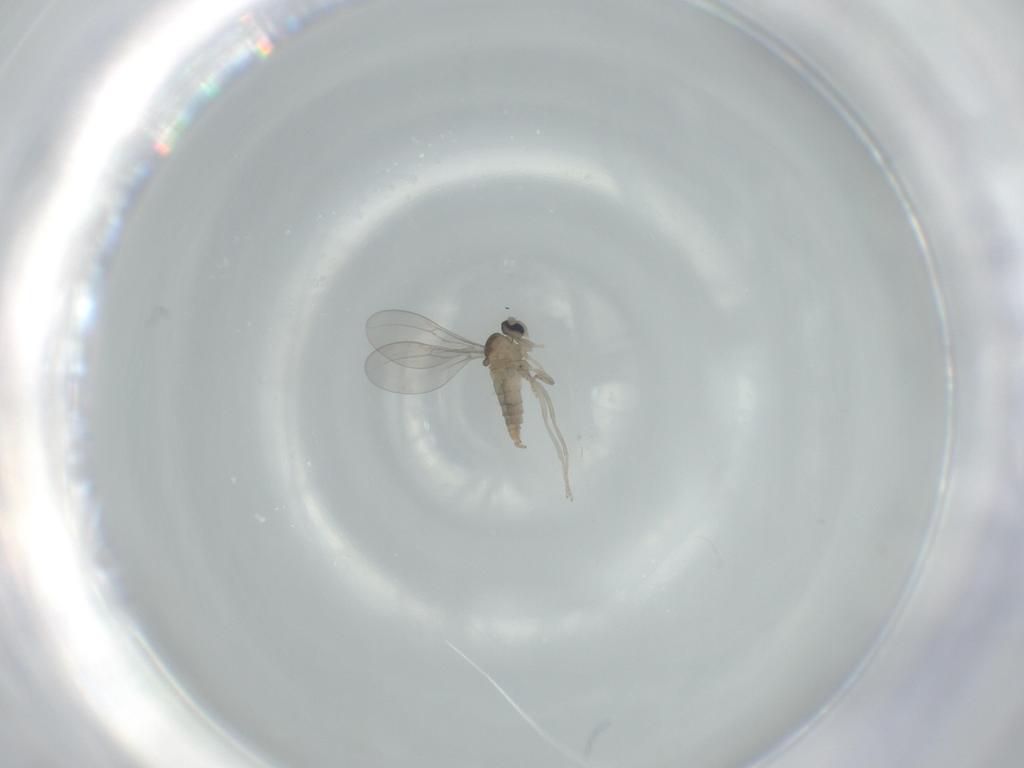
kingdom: Animalia
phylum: Arthropoda
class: Insecta
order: Diptera
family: Cecidomyiidae
